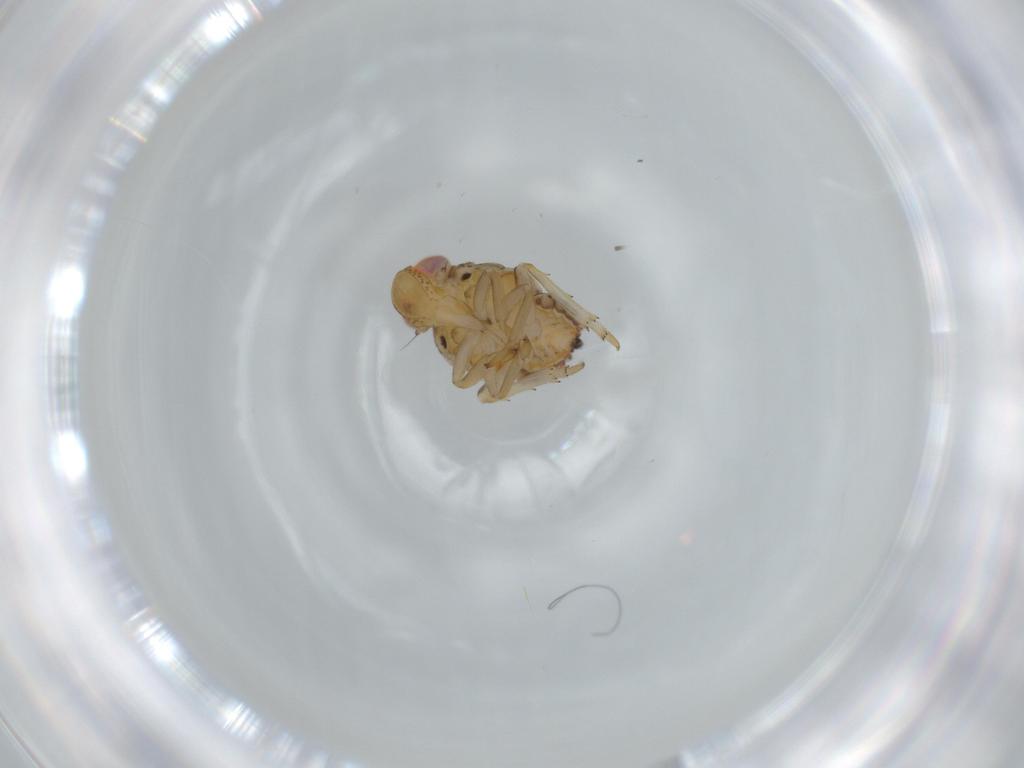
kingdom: Animalia
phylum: Arthropoda
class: Insecta
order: Hemiptera
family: Issidae
